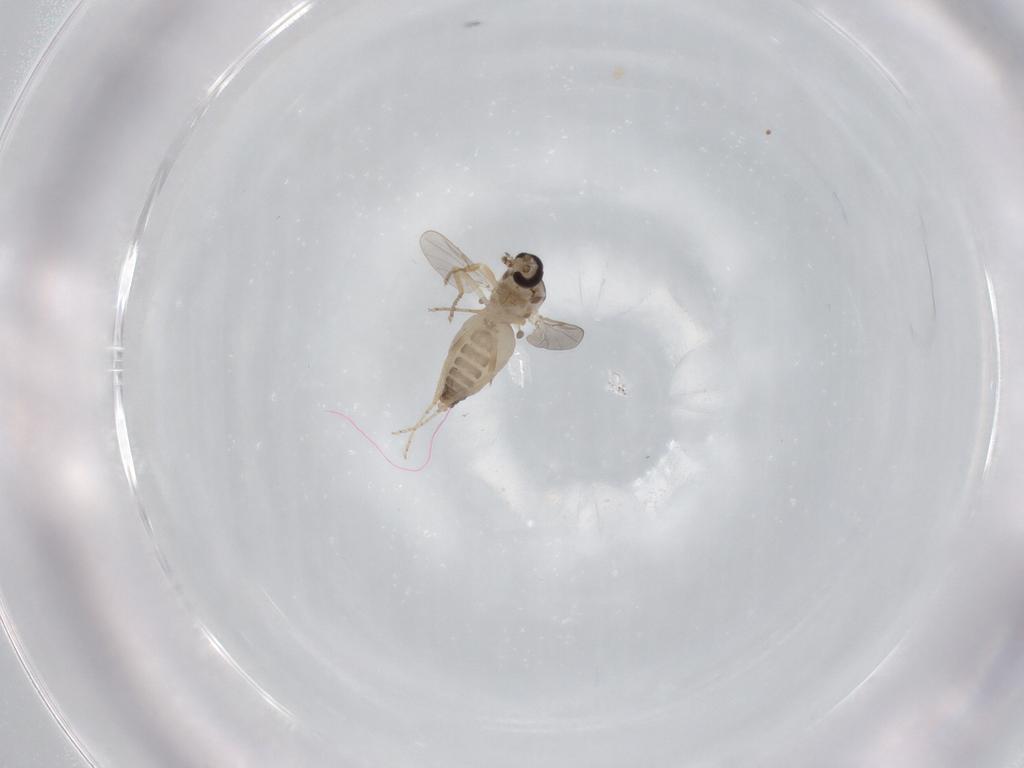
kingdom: Animalia
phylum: Arthropoda
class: Insecta
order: Diptera
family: Ceratopogonidae
